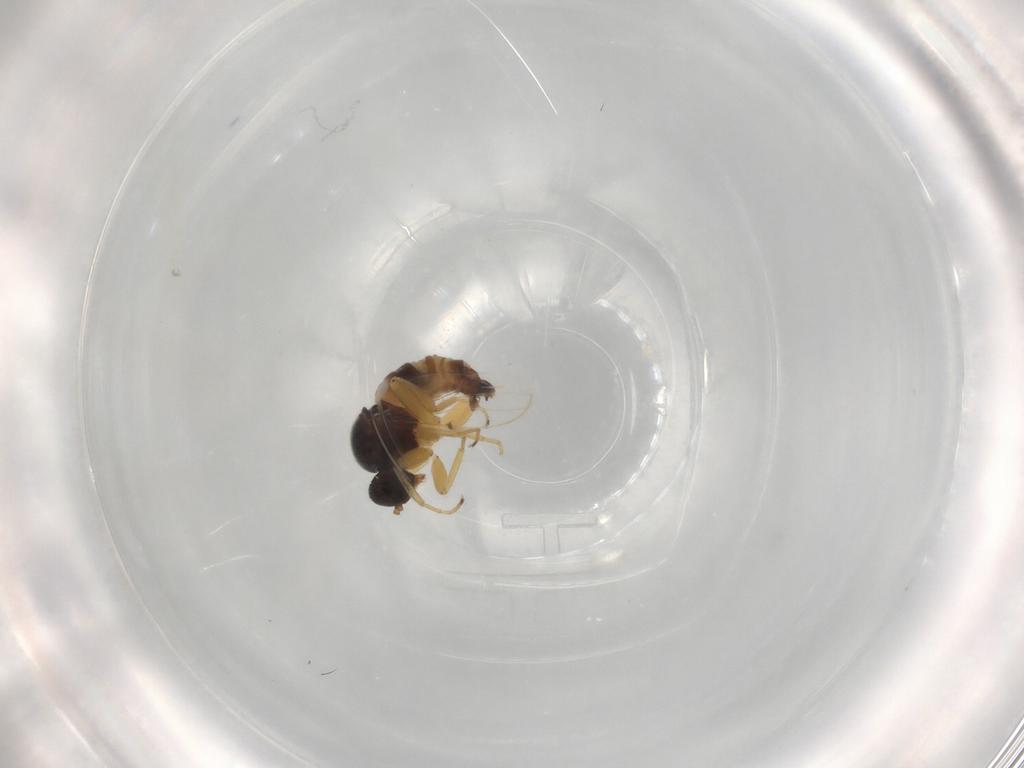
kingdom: Animalia
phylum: Arthropoda
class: Insecta
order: Diptera
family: Hybotidae
